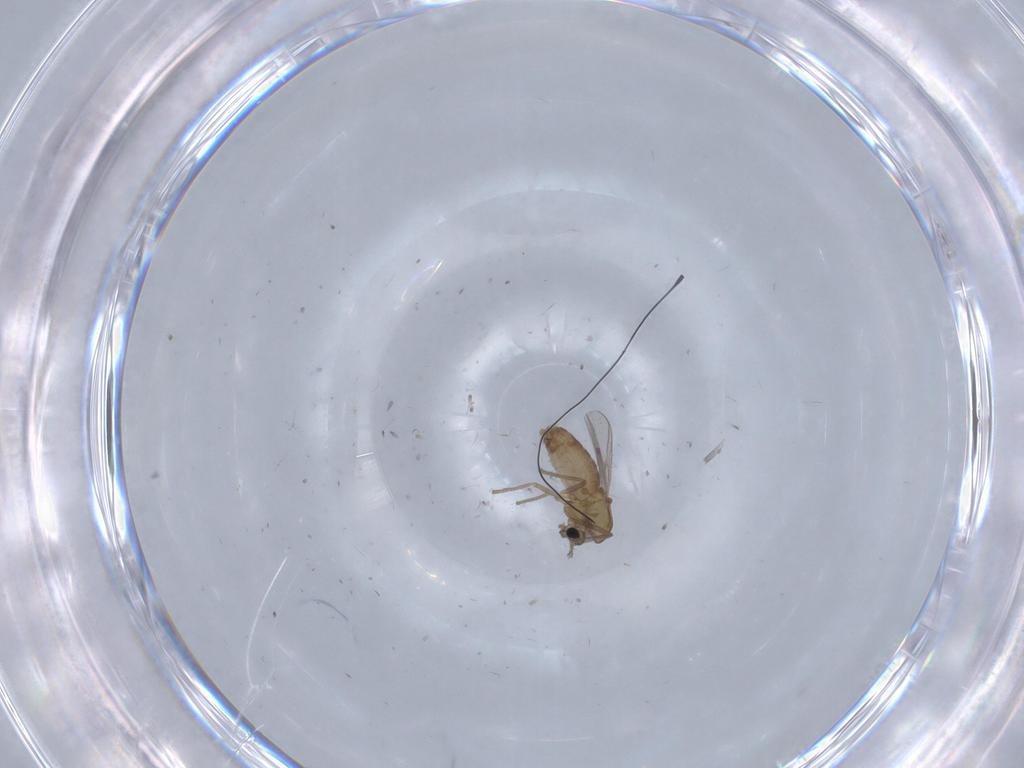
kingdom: Animalia
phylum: Arthropoda
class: Insecta
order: Diptera
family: Chironomidae
